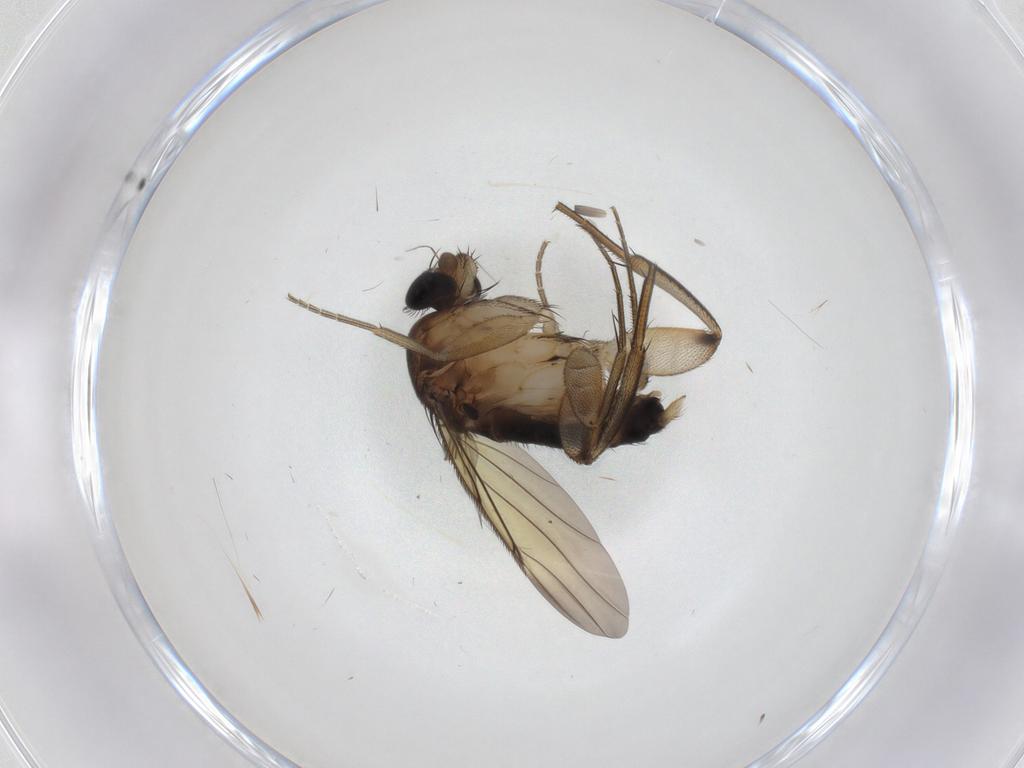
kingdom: Animalia
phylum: Arthropoda
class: Insecta
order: Diptera
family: Phoridae
